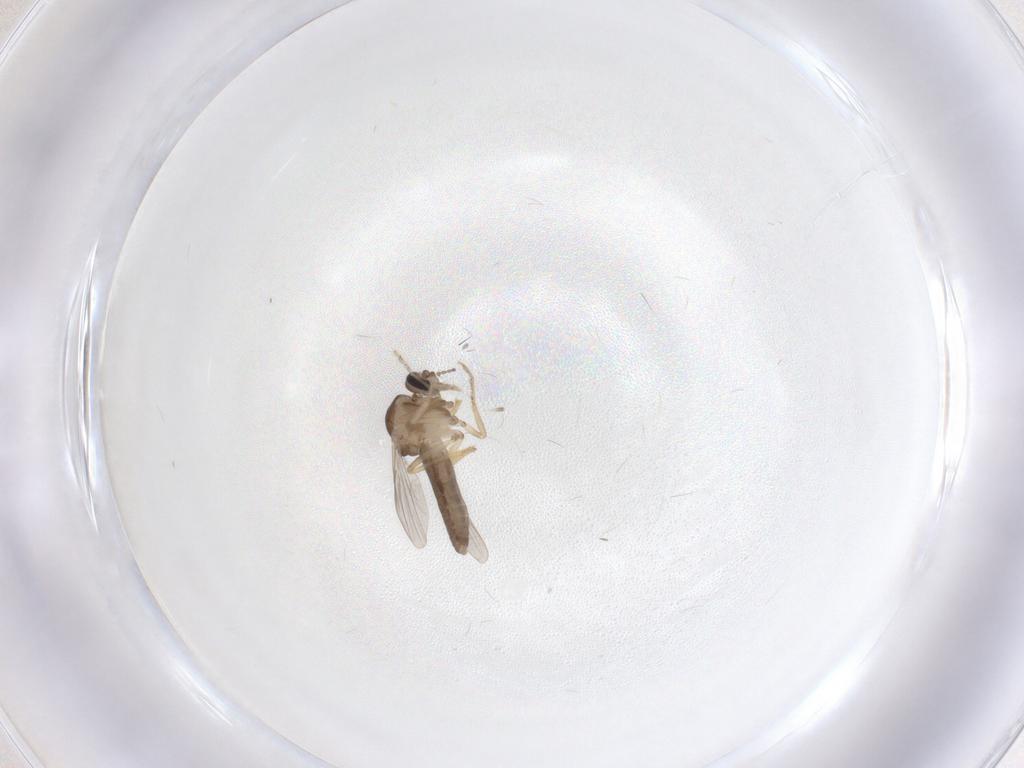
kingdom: Animalia
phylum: Arthropoda
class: Insecta
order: Diptera
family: Ceratopogonidae
